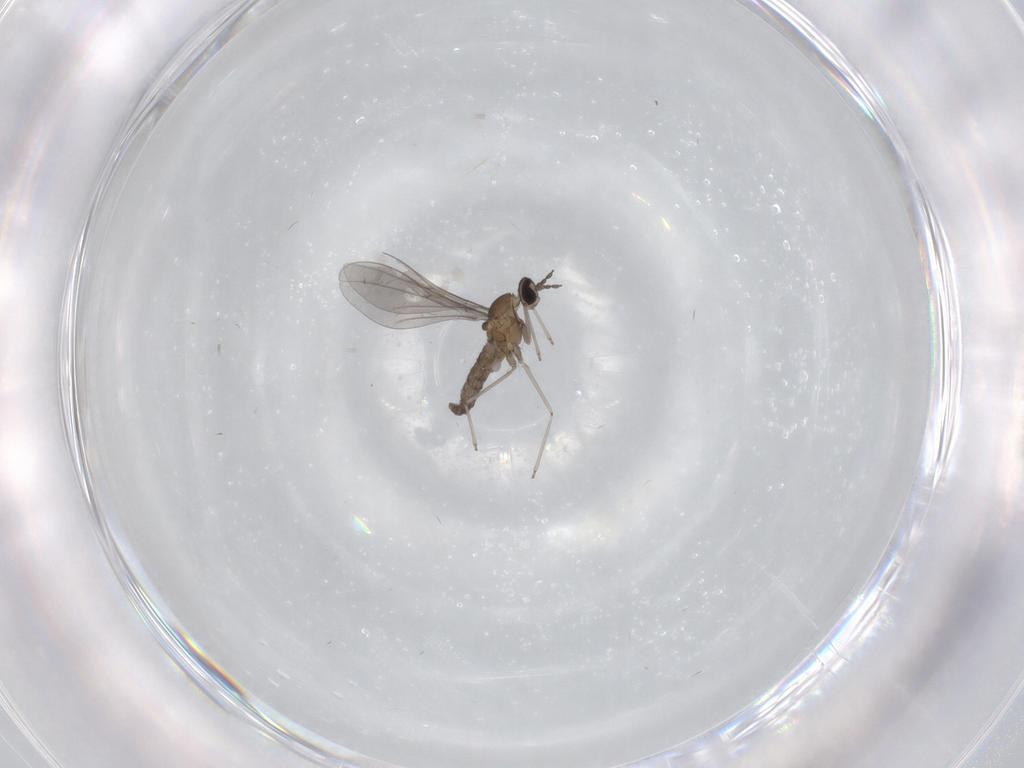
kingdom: Animalia
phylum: Arthropoda
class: Insecta
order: Diptera
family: Cecidomyiidae
